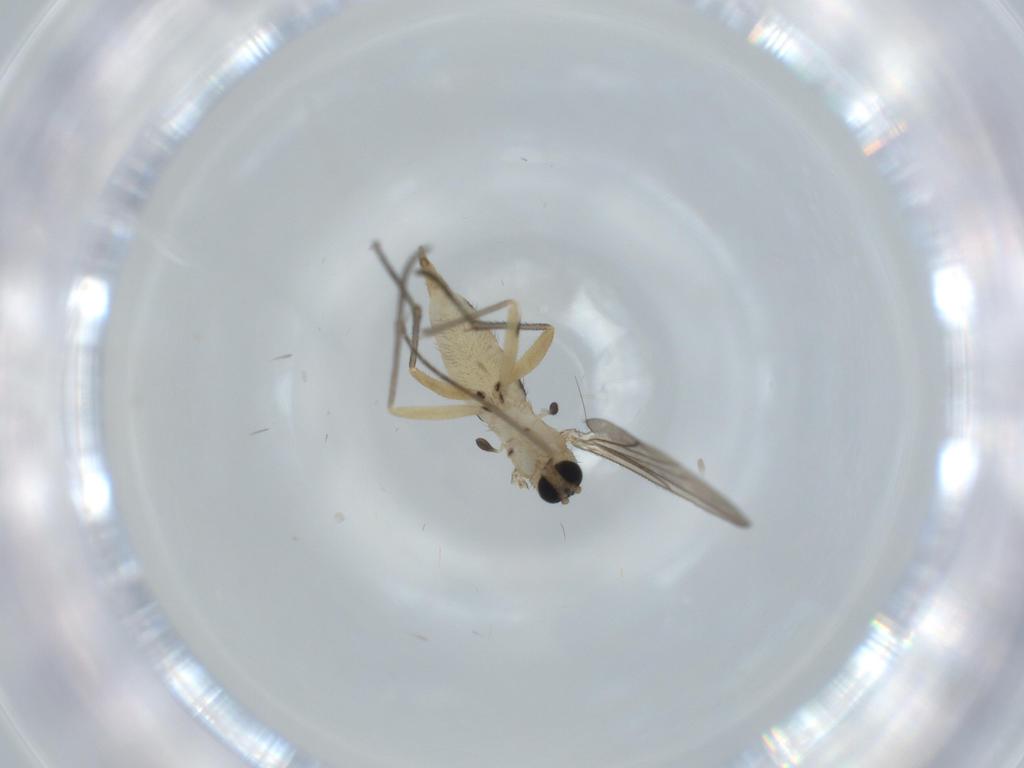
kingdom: Animalia
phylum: Arthropoda
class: Insecta
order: Diptera
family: Sciaridae
